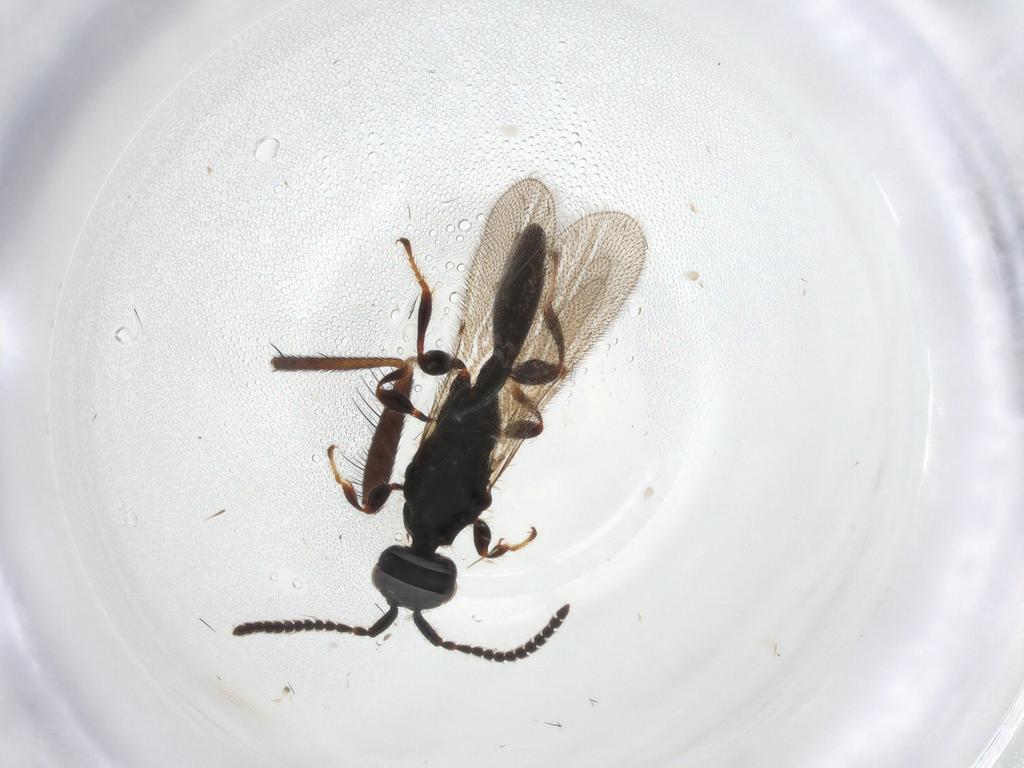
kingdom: Animalia
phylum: Arthropoda
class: Insecta
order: Hymenoptera
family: Diapriidae
